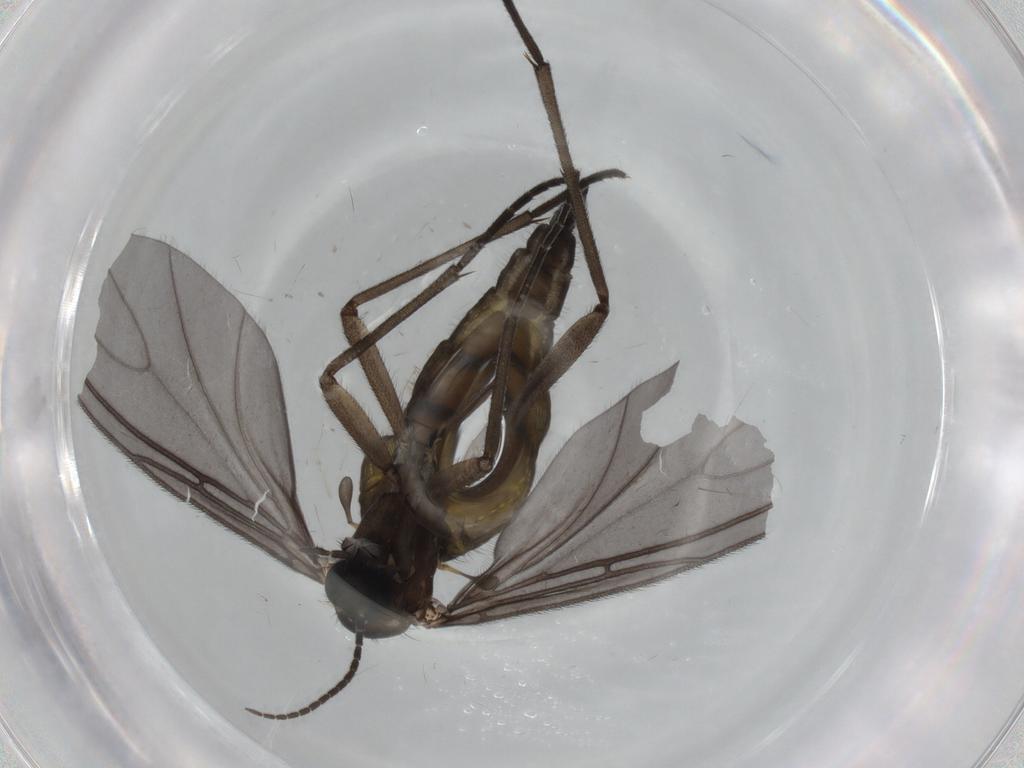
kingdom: Animalia
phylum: Arthropoda
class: Insecta
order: Diptera
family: Sciaridae
